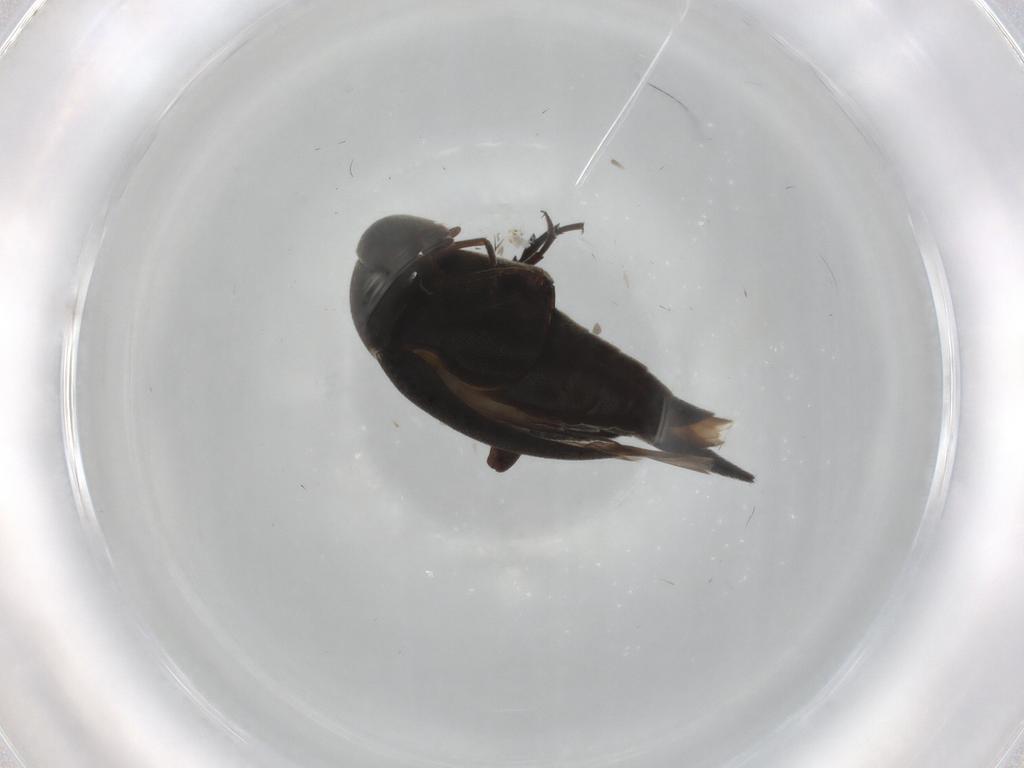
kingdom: Animalia
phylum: Arthropoda
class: Insecta
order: Coleoptera
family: Mordellidae
